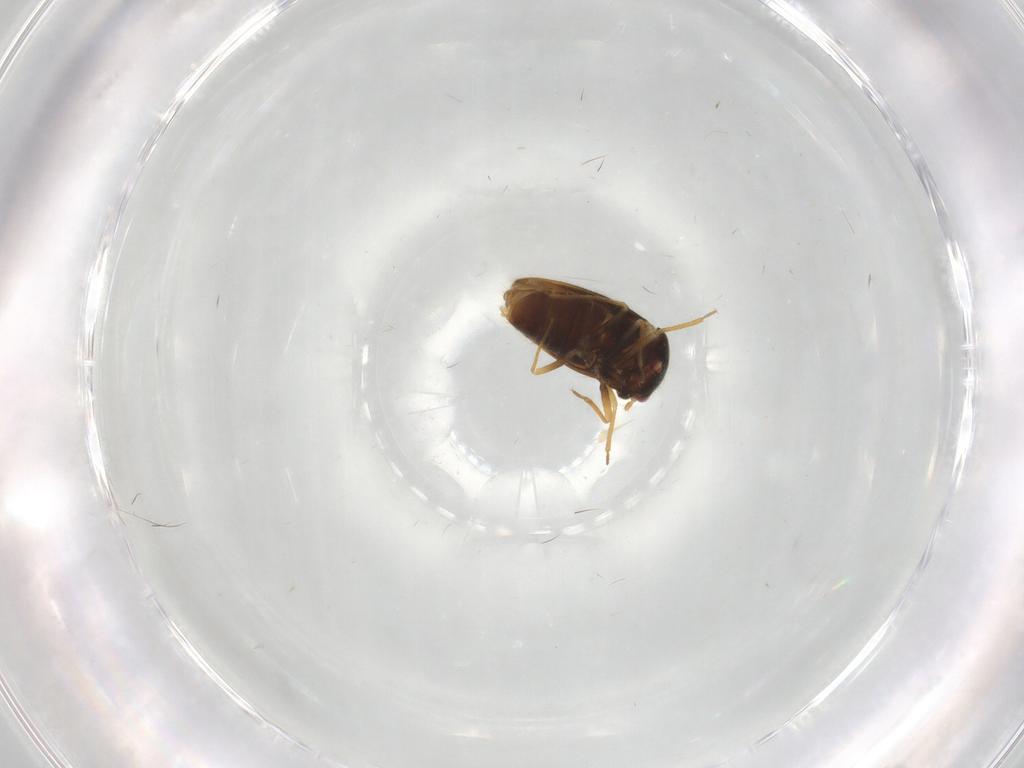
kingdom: Animalia
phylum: Arthropoda
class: Insecta
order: Hemiptera
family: Schizopteridae
